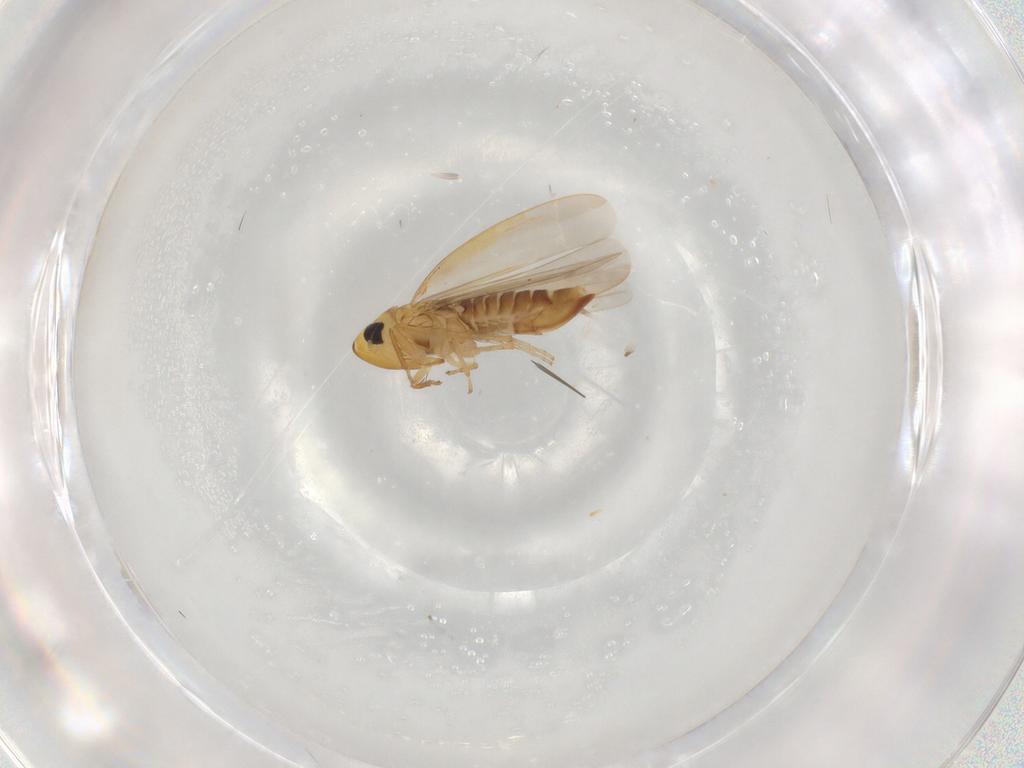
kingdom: Animalia
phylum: Arthropoda
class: Insecta
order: Hemiptera
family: Cicadellidae
